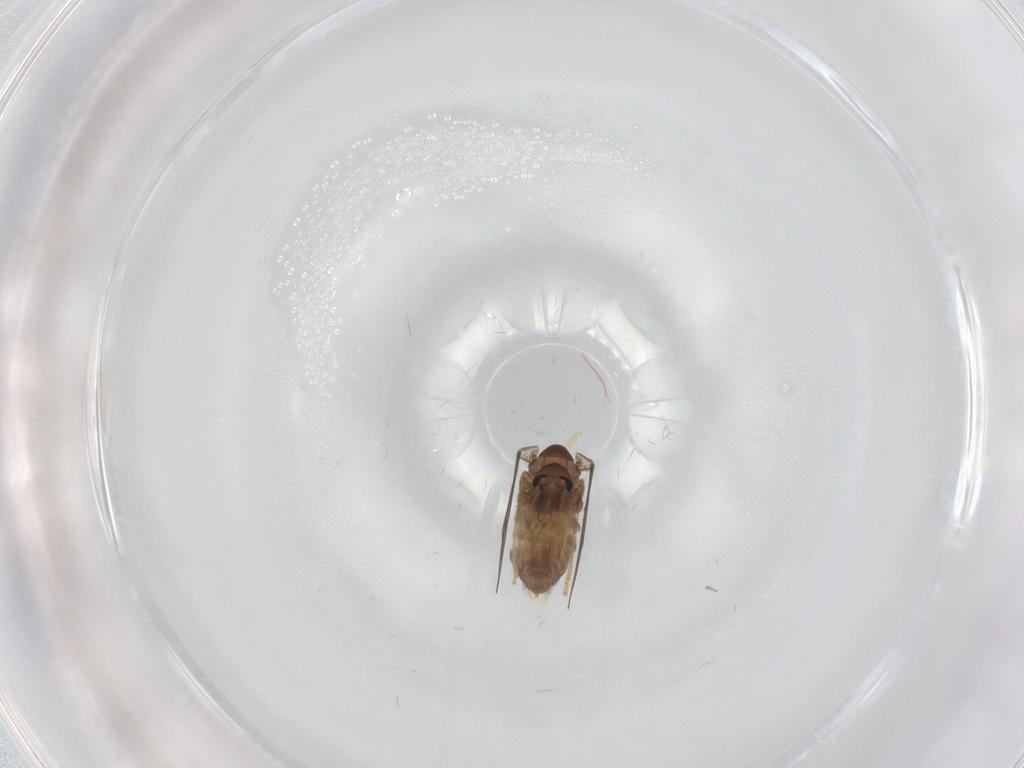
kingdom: Animalia
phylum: Arthropoda
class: Insecta
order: Diptera
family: Psychodidae
